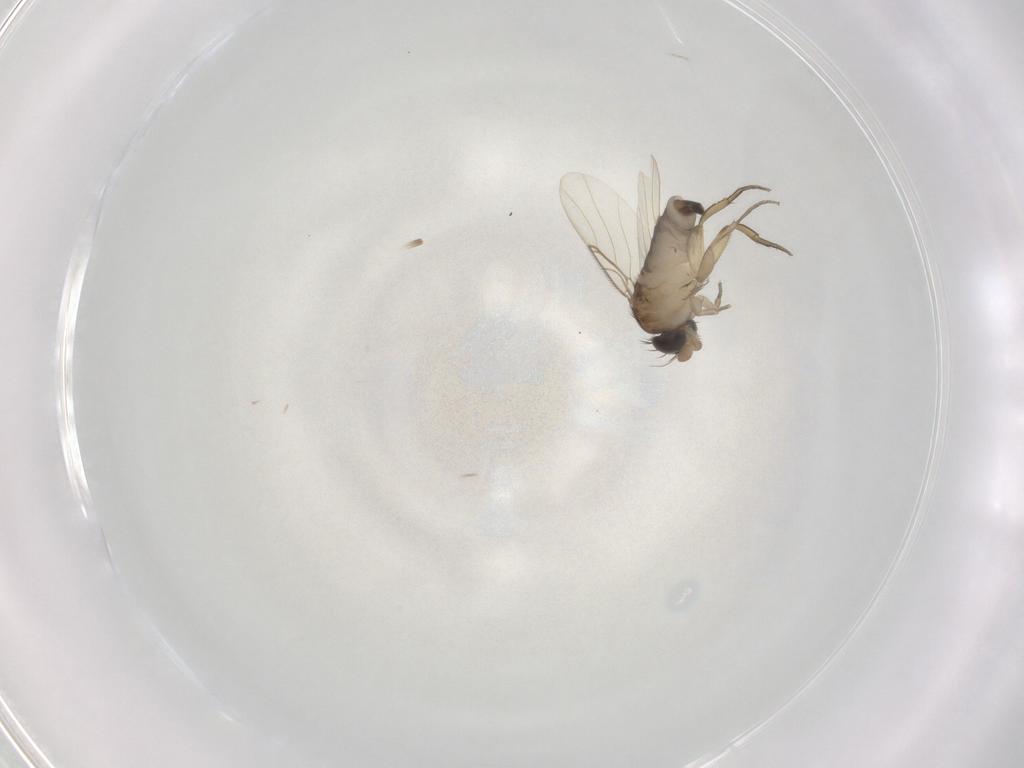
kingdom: Animalia
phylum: Arthropoda
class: Insecta
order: Diptera
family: Phoridae
